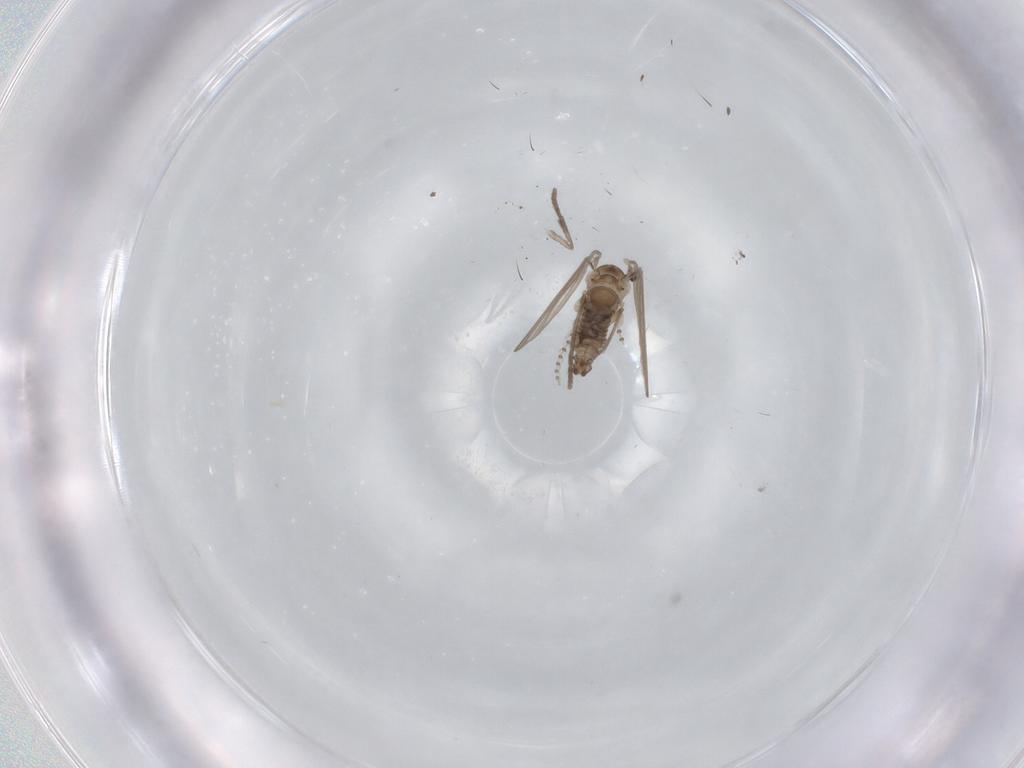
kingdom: Animalia
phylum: Arthropoda
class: Insecta
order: Diptera
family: Psychodidae
